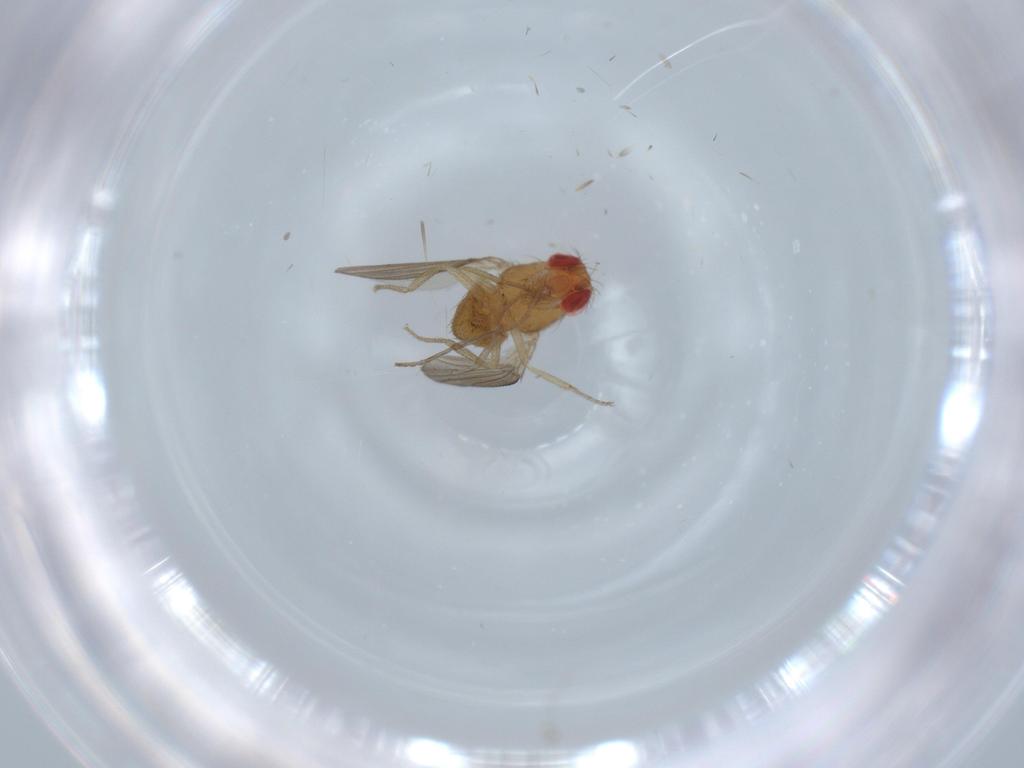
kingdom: Animalia
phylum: Arthropoda
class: Insecta
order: Diptera
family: Drosophilidae
